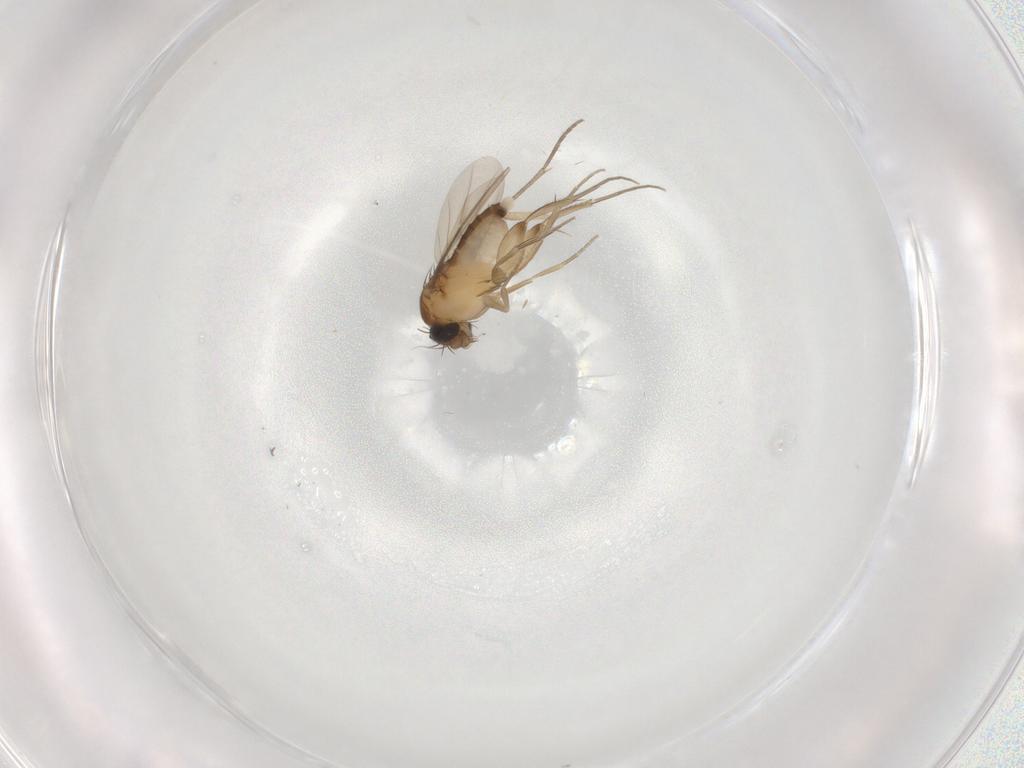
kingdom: Animalia
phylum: Arthropoda
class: Insecta
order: Diptera
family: Phoridae
